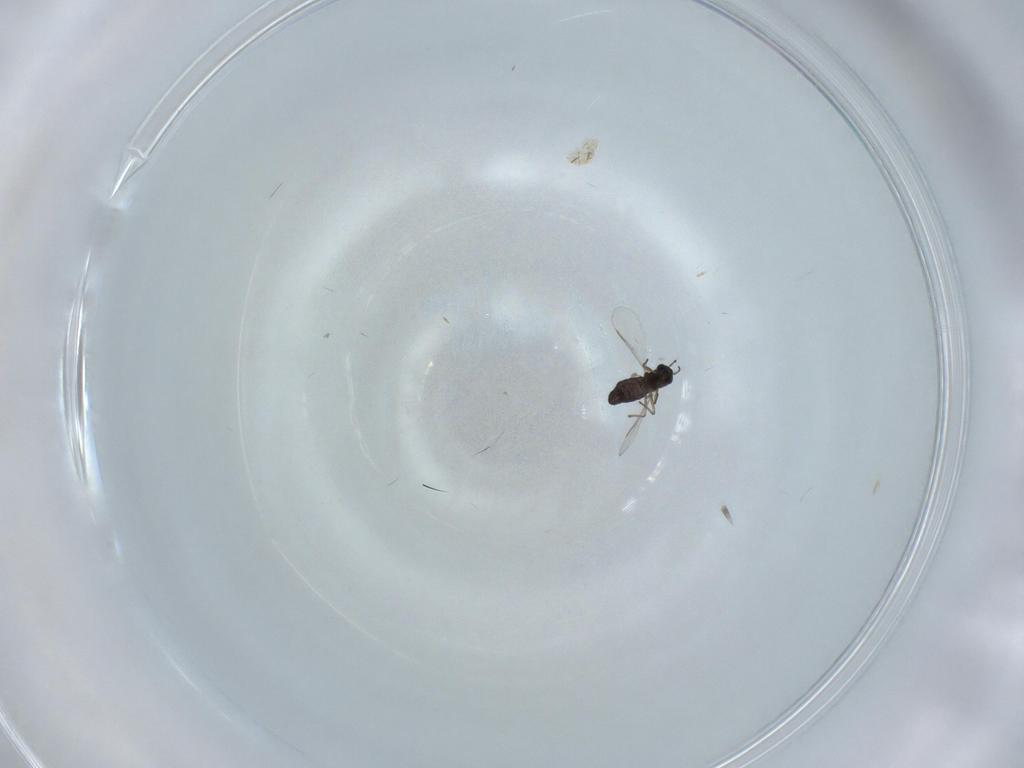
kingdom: Animalia
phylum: Arthropoda
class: Insecta
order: Diptera
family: Chironomidae
